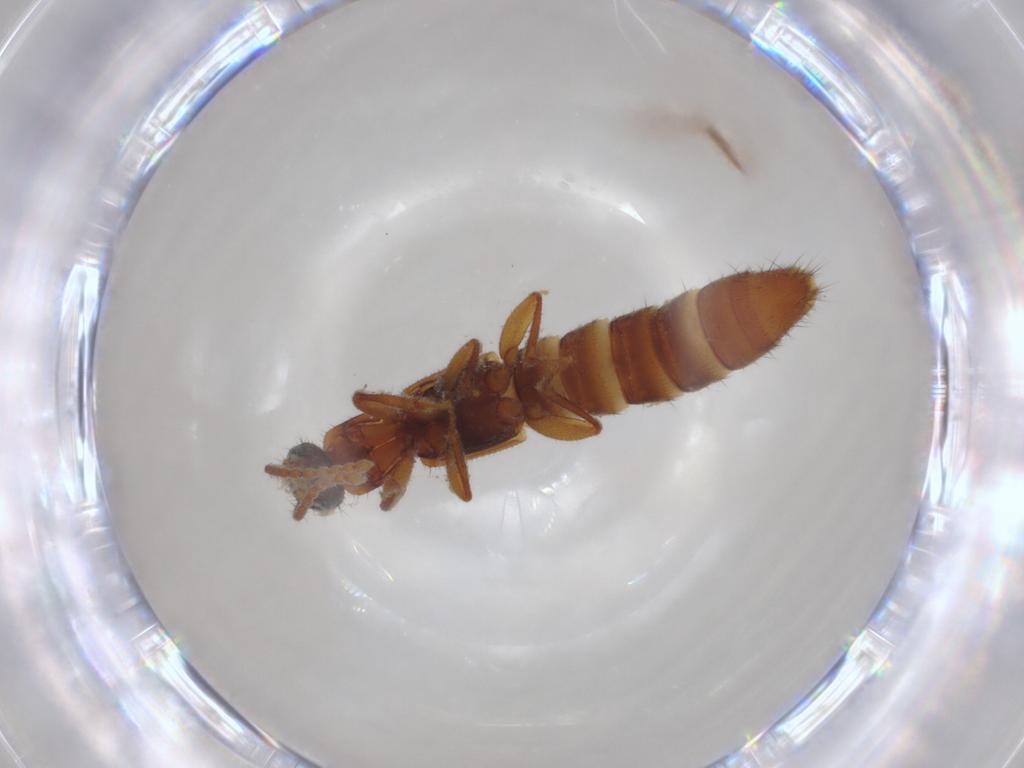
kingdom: Animalia
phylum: Arthropoda
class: Insecta
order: Coleoptera
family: Staphylinidae
